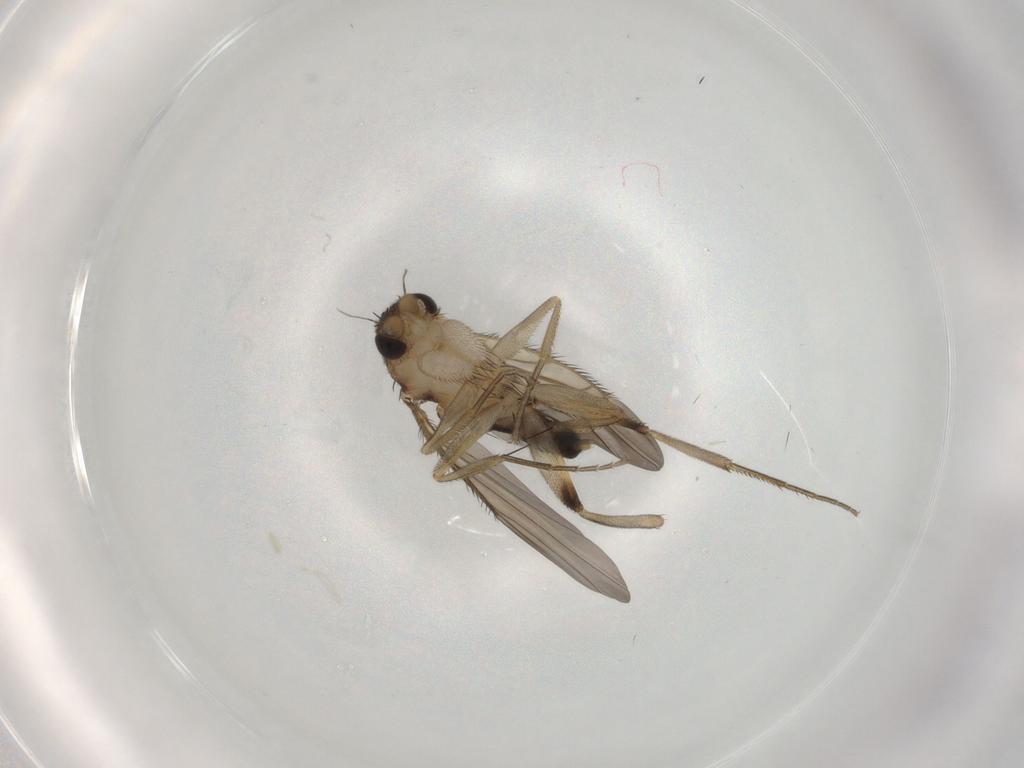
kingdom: Animalia
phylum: Arthropoda
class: Insecta
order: Diptera
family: Phoridae
